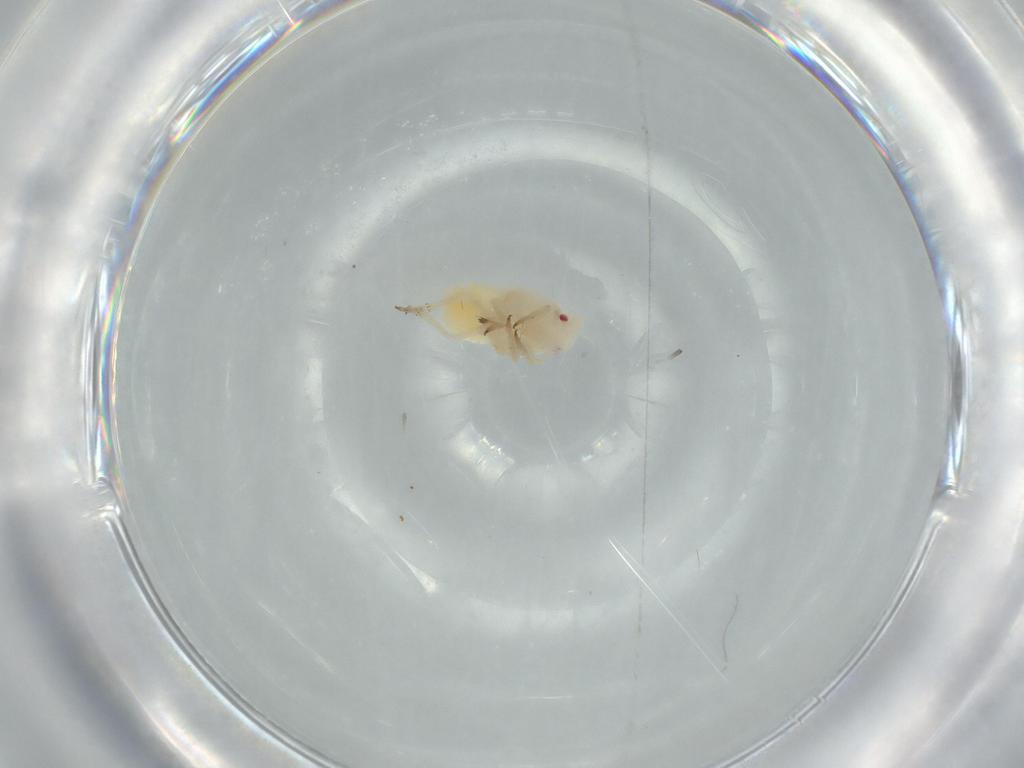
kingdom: Animalia
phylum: Arthropoda
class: Insecta
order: Hemiptera
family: Flatidae
